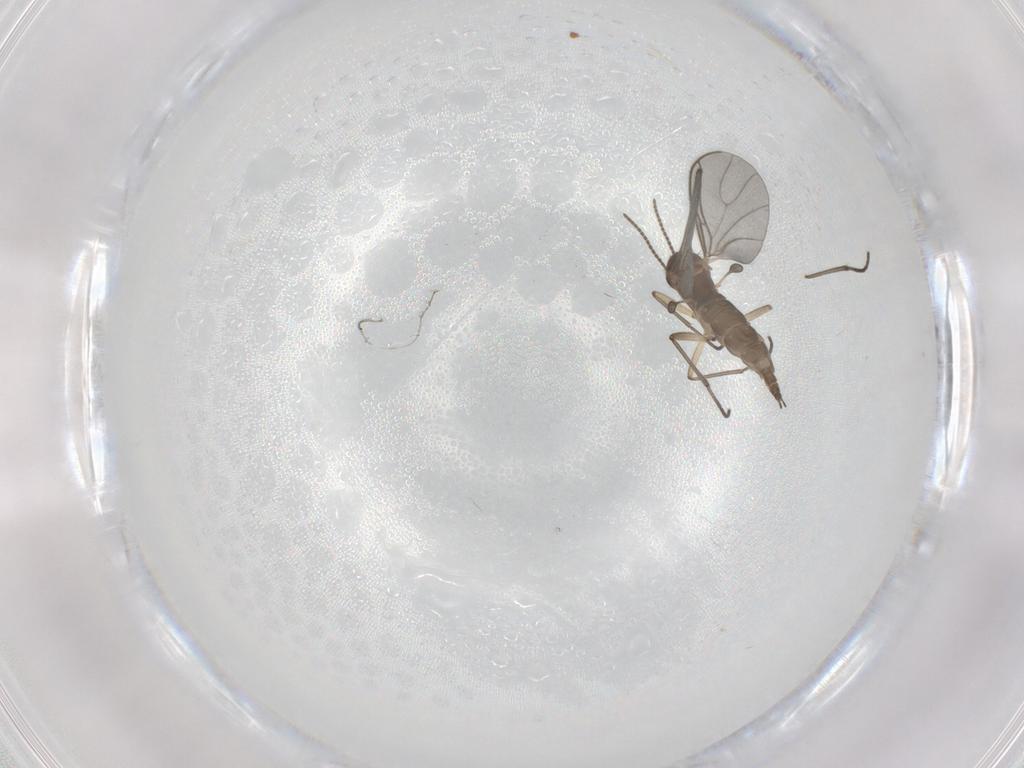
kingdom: Animalia
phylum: Arthropoda
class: Insecta
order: Diptera
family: Sciaridae
